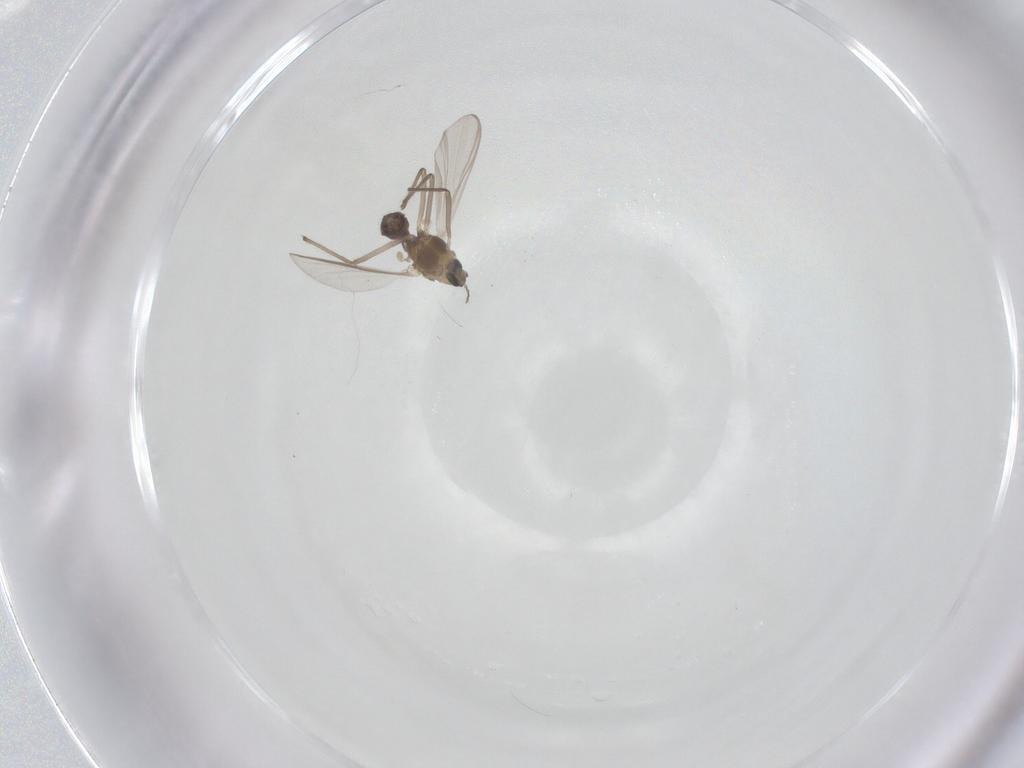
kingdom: Animalia
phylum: Arthropoda
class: Insecta
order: Diptera
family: Chironomidae
